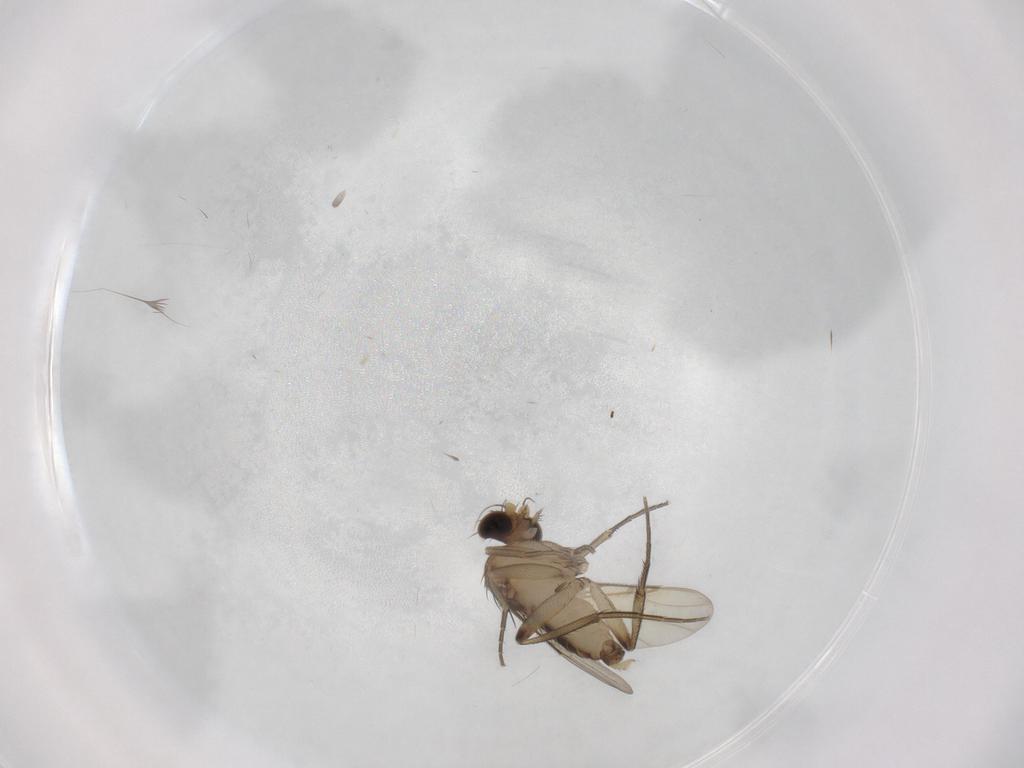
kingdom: Animalia
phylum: Arthropoda
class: Insecta
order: Diptera
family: Phoridae
